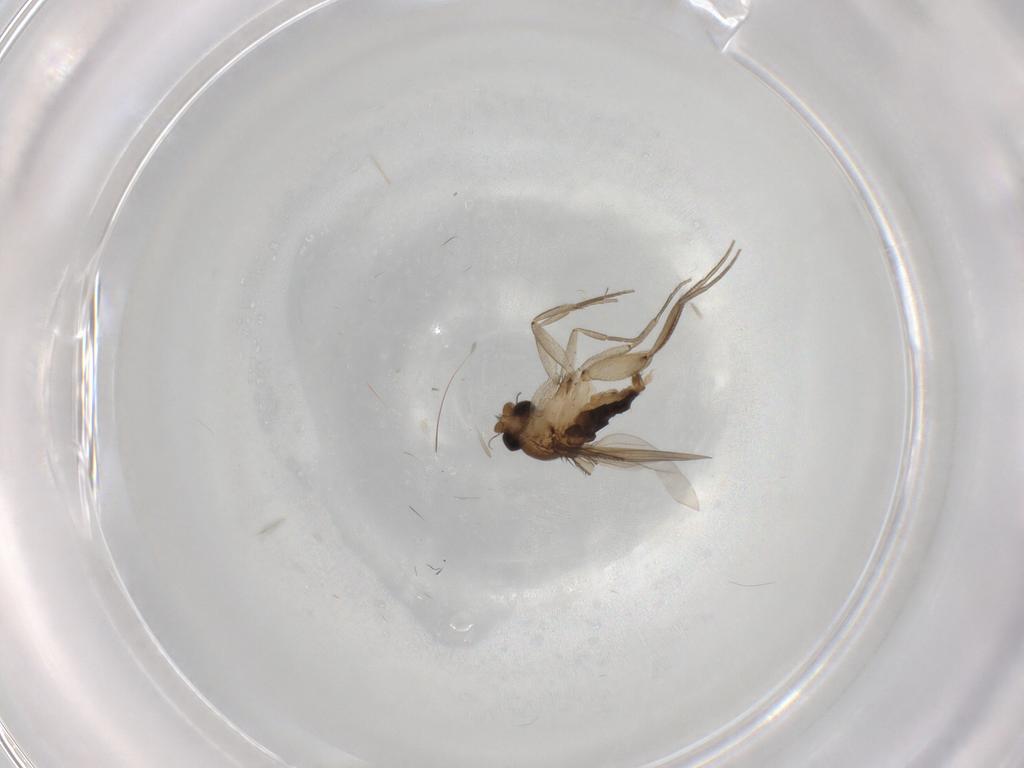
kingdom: Animalia
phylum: Arthropoda
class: Insecta
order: Diptera
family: Phoridae
